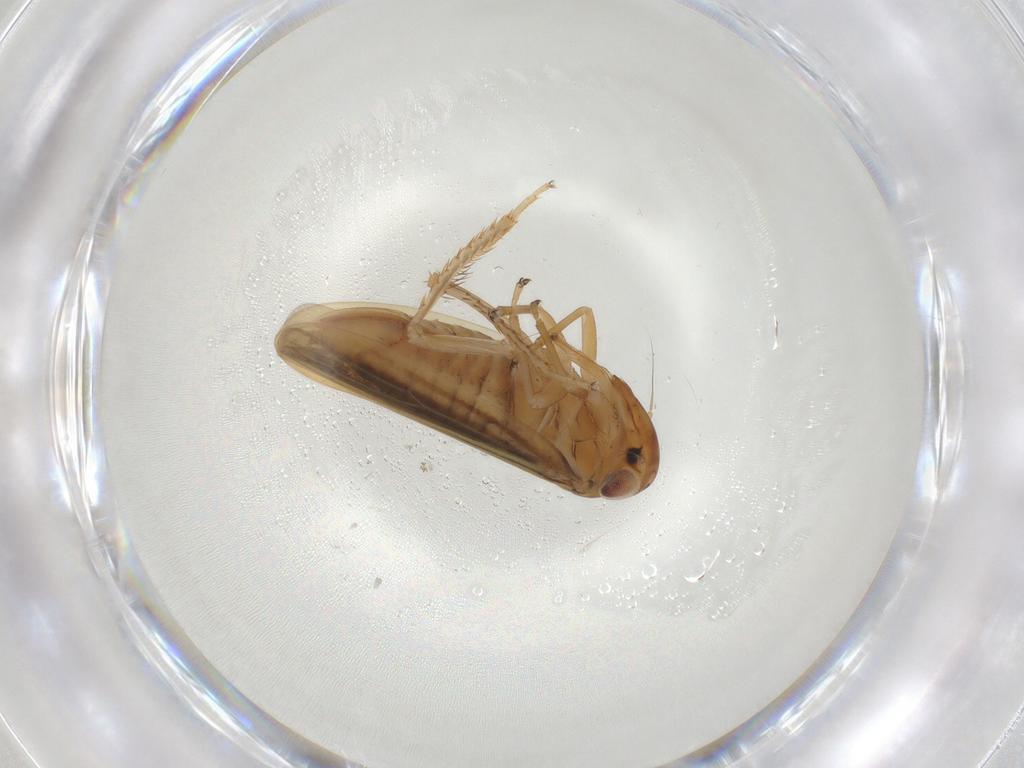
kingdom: Animalia
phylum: Arthropoda
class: Insecta
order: Hemiptera
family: Cicadellidae
